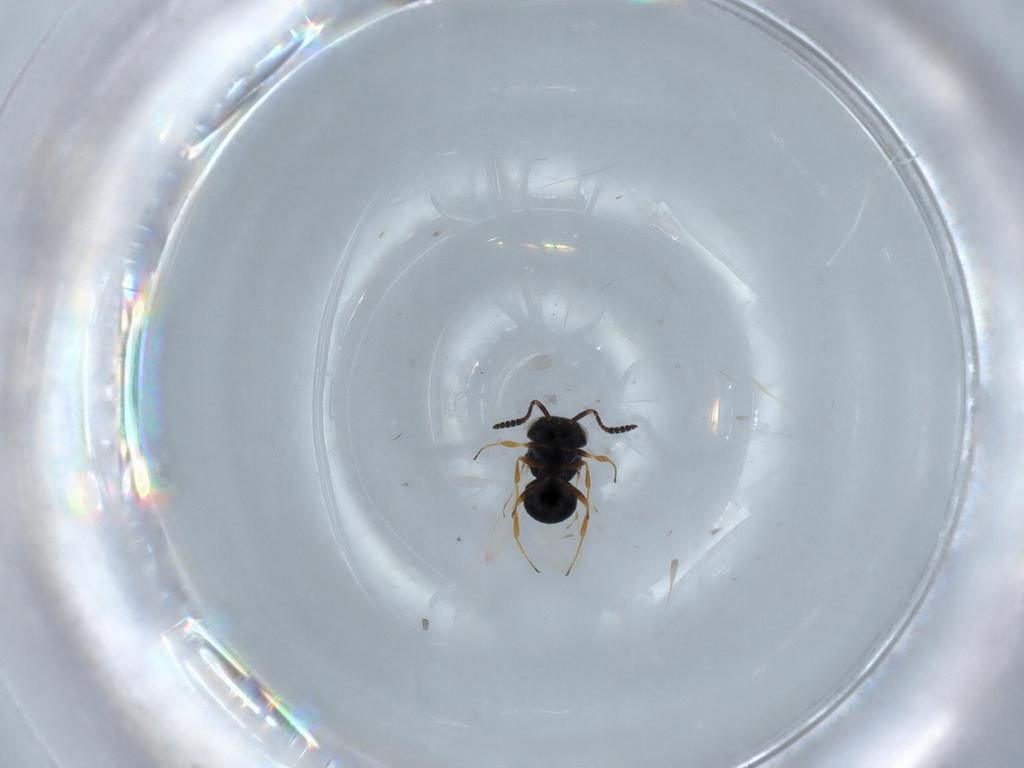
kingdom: Animalia
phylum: Arthropoda
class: Insecta
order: Hymenoptera
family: Scelionidae
